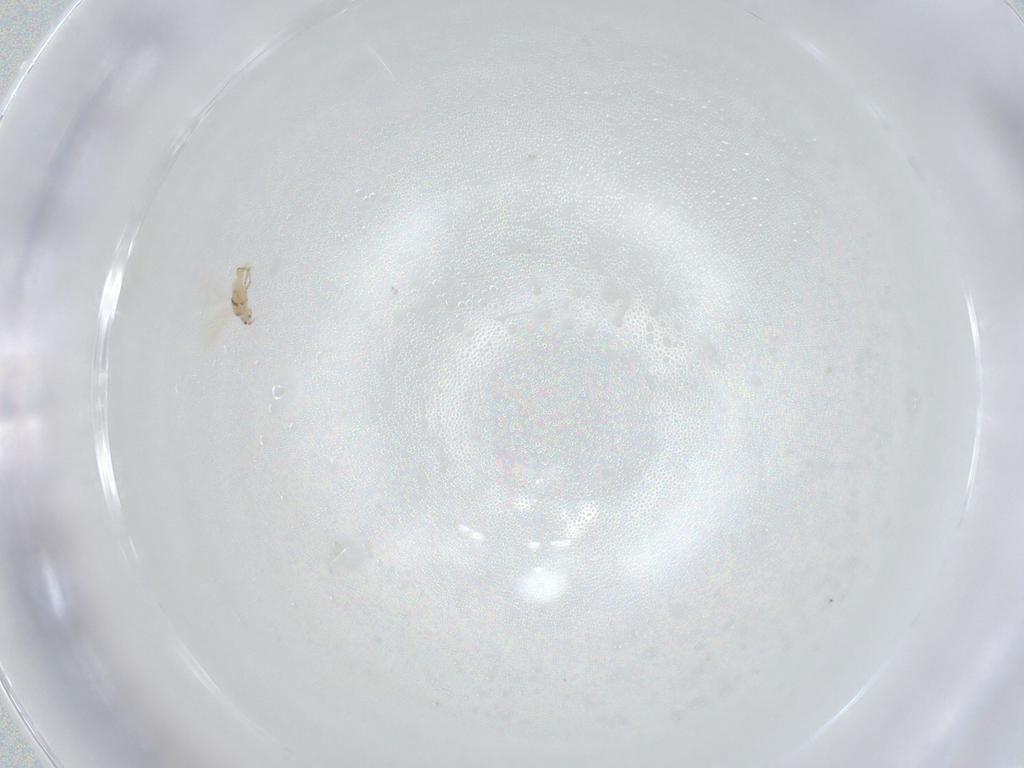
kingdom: Animalia
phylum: Arthropoda
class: Insecta
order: Hemiptera
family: Coccoidea_incertae_sedis
